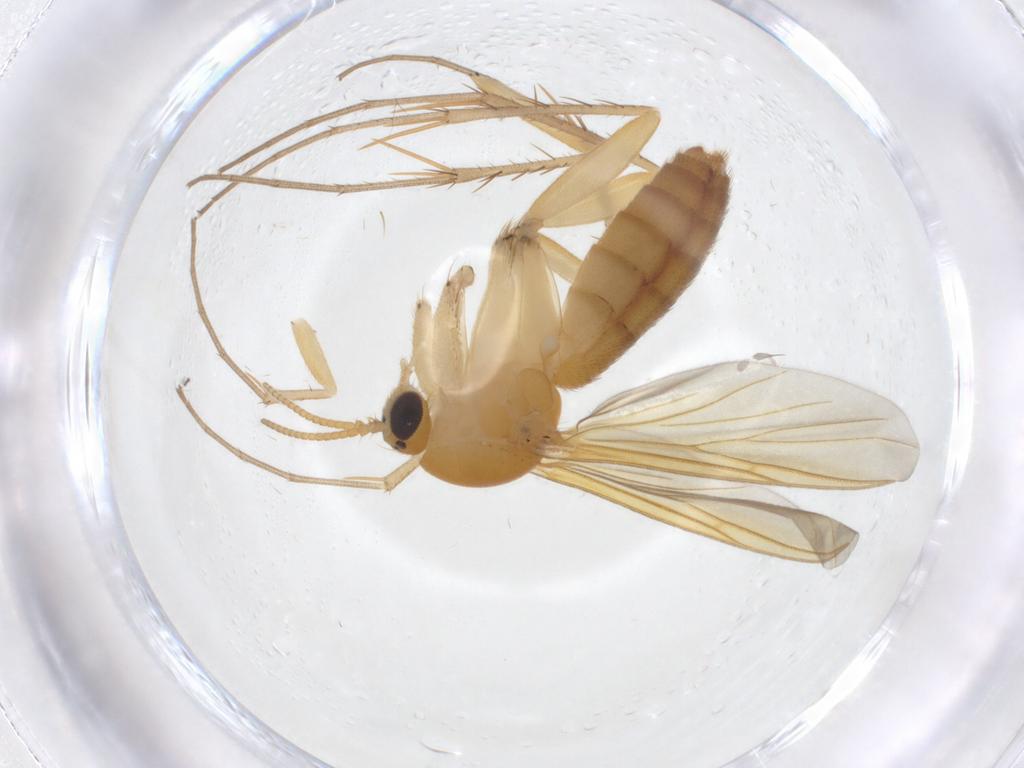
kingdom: Animalia
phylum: Arthropoda
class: Insecta
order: Diptera
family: Mycetophilidae
